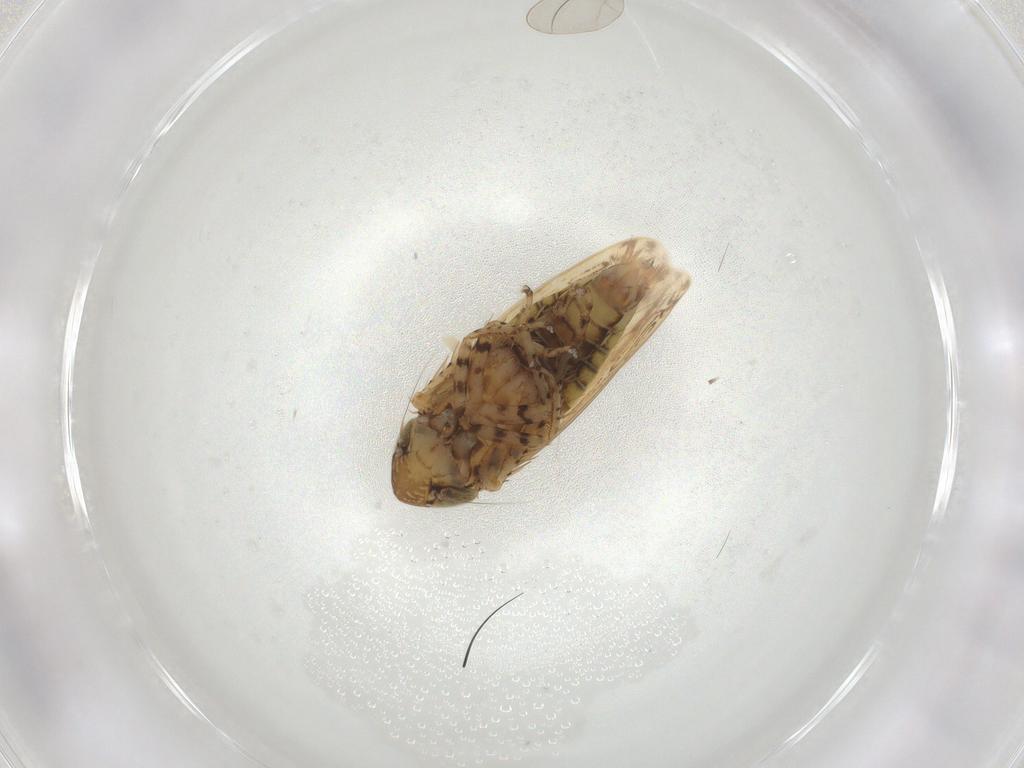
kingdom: Animalia
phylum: Arthropoda
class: Insecta
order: Hemiptera
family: Cicadellidae
